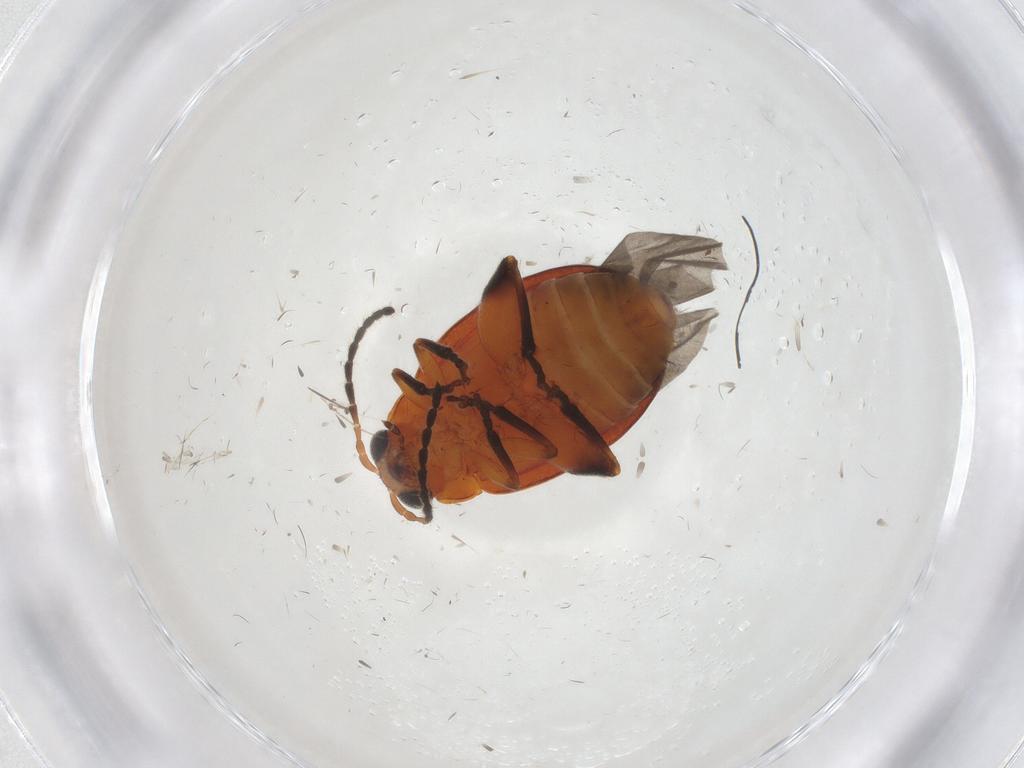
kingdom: Animalia
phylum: Arthropoda
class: Insecta
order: Coleoptera
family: Chrysomelidae
